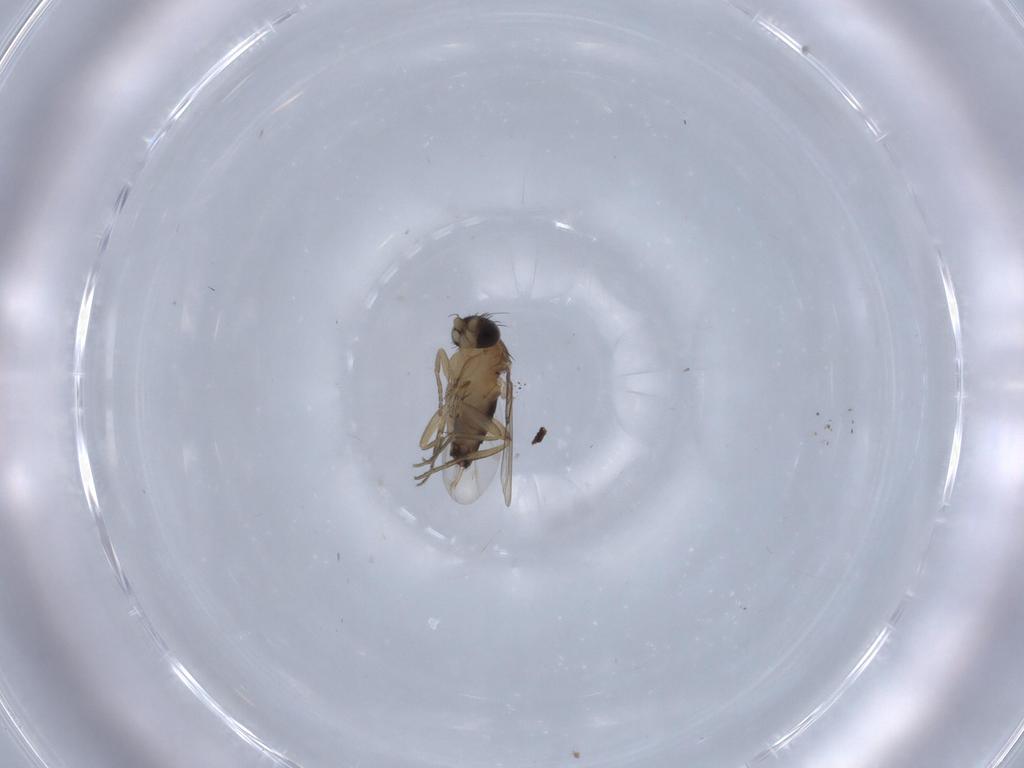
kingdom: Animalia
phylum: Arthropoda
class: Insecta
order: Diptera
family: Phoridae
